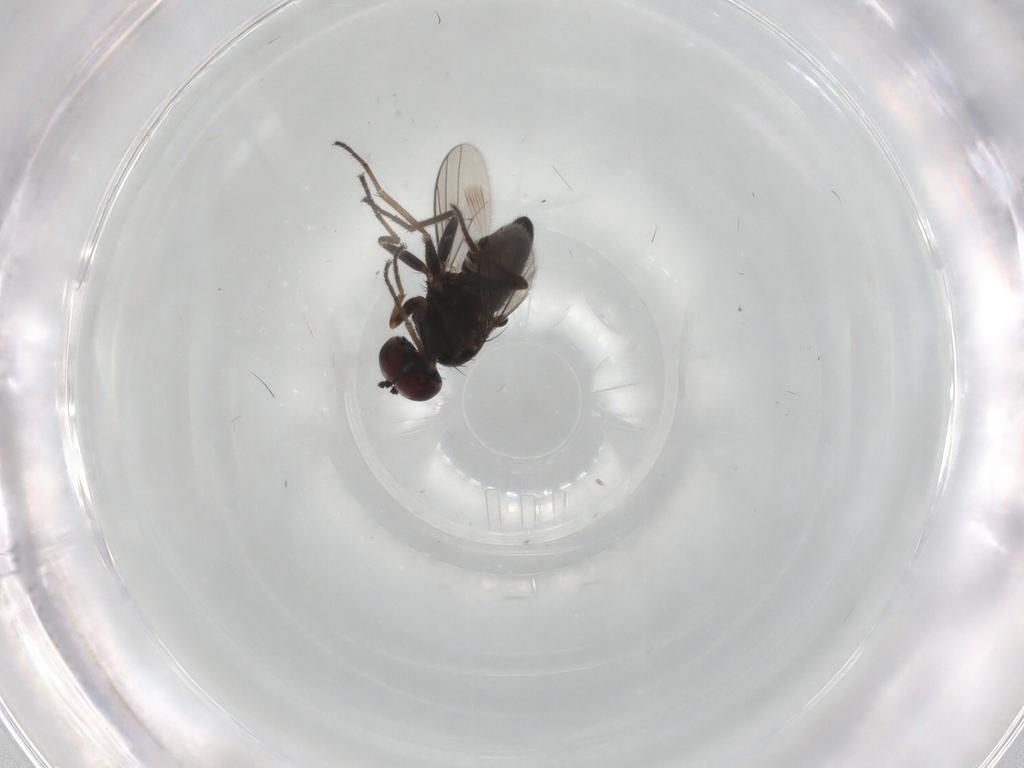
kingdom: Animalia
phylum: Arthropoda
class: Insecta
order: Diptera
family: Dolichopodidae
